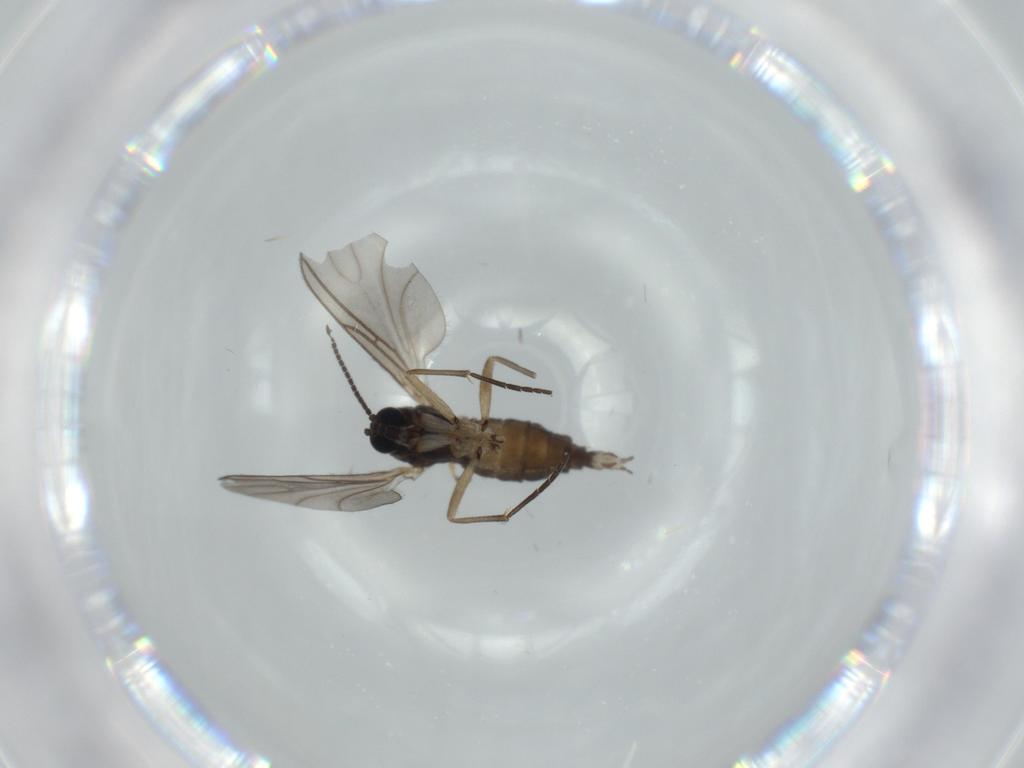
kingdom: Animalia
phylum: Arthropoda
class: Insecta
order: Diptera
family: Sciaridae
